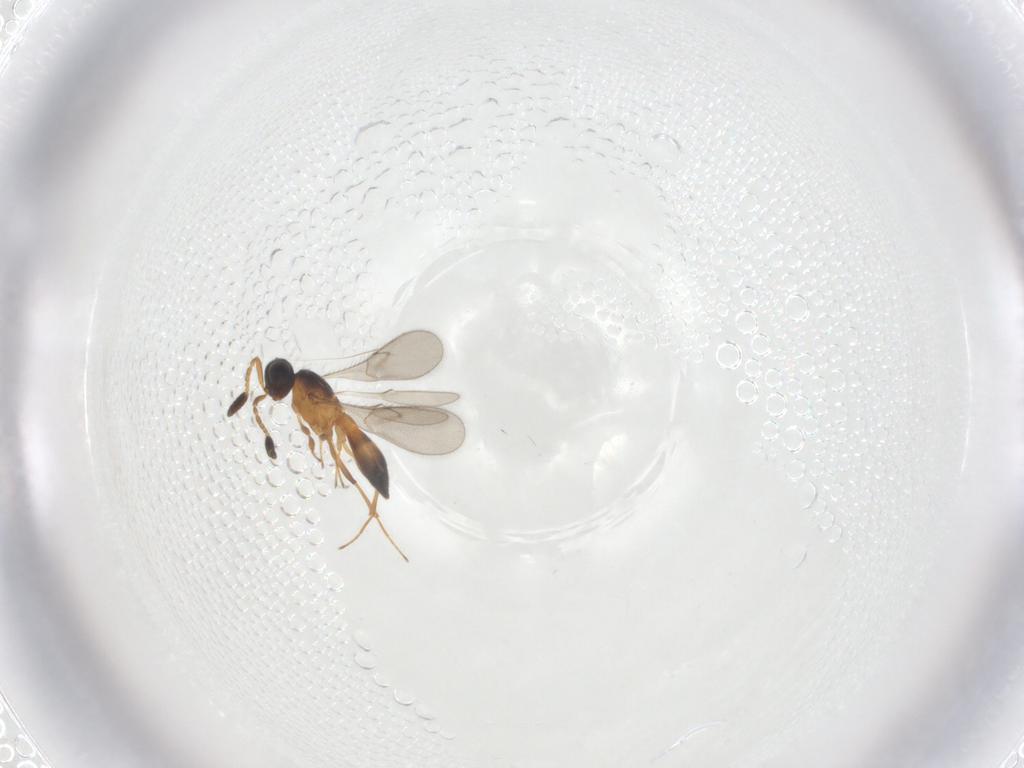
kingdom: Animalia
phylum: Arthropoda
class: Insecta
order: Hymenoptera
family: Scelionidae
